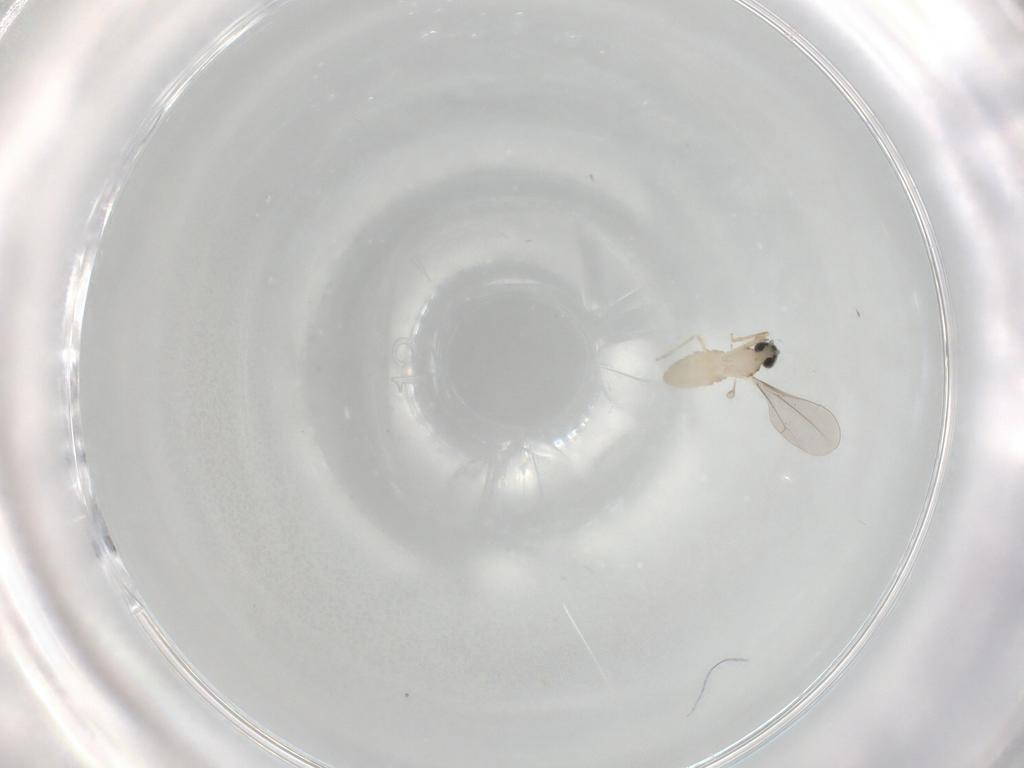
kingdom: Animalia
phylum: Arthropoda
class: Insecta
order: Diptera
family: Cecidomyiidae
